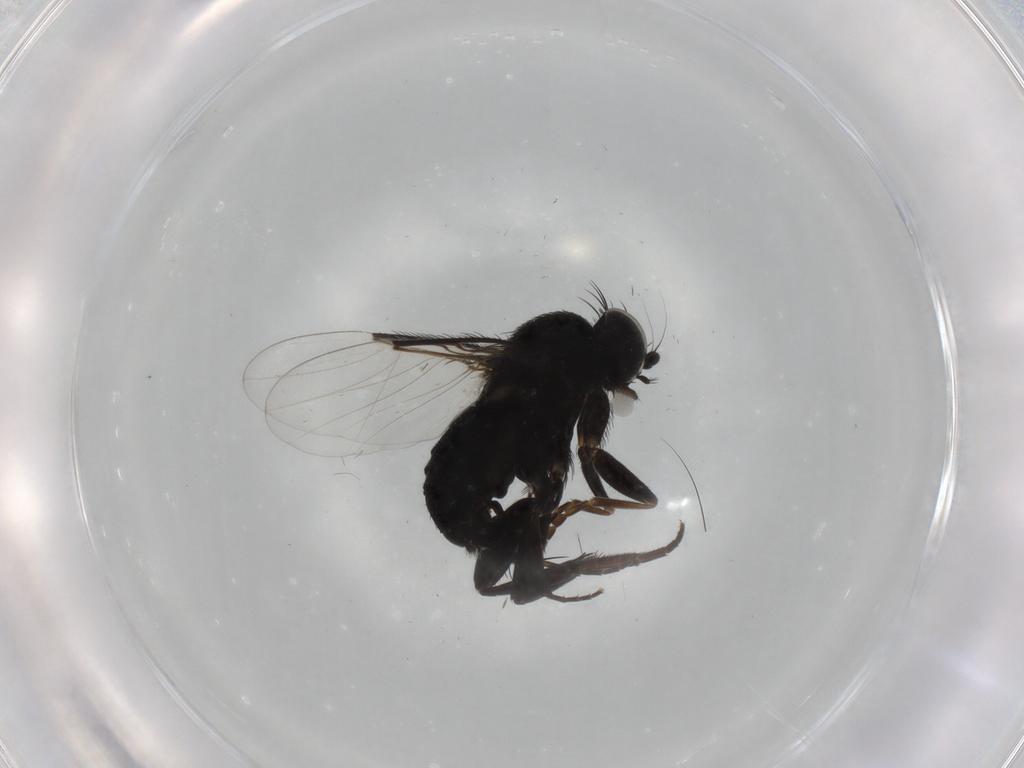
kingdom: Animalia
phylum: Arthropoda
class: Insecta
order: Diptera
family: Phoridae
